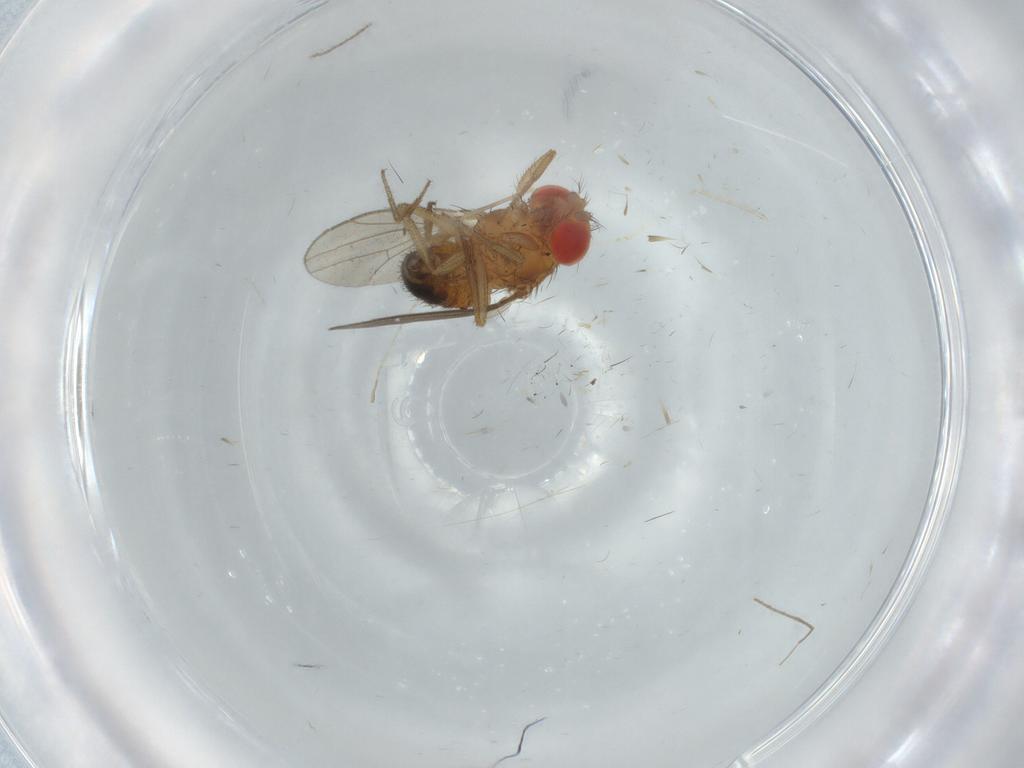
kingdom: Animalia
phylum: Arthropoda
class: Insecta
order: Diptera
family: Drosophilidae
